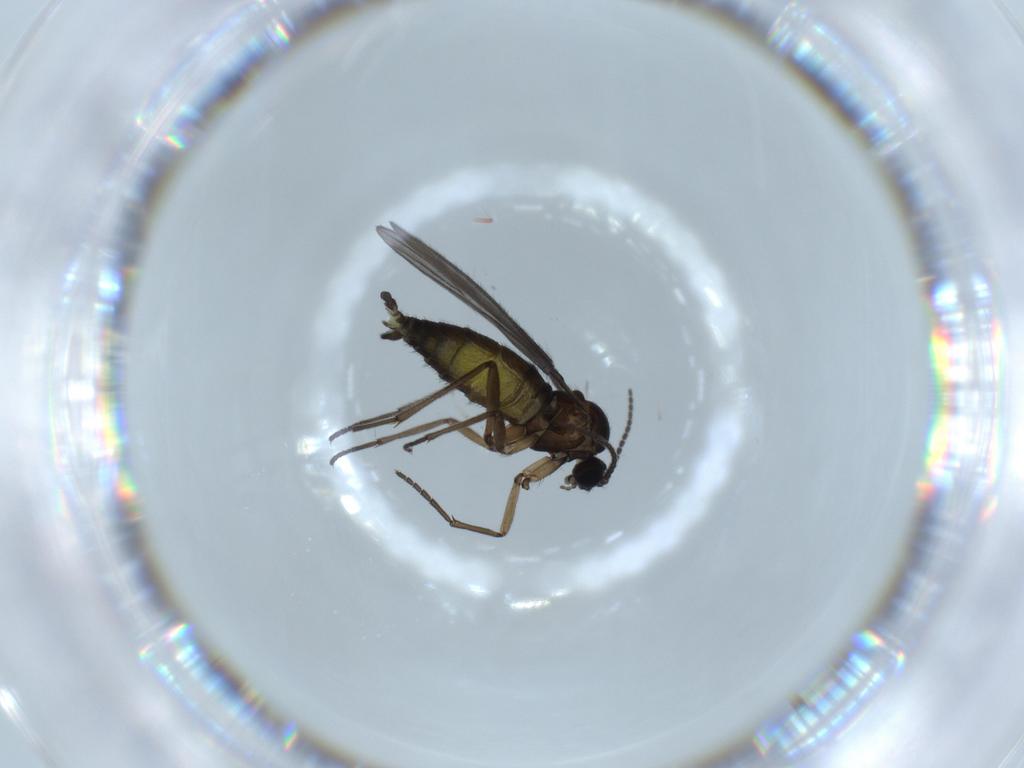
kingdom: Animalia
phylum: Arthropoda
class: Insecta
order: Diptera
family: Sciaridae
